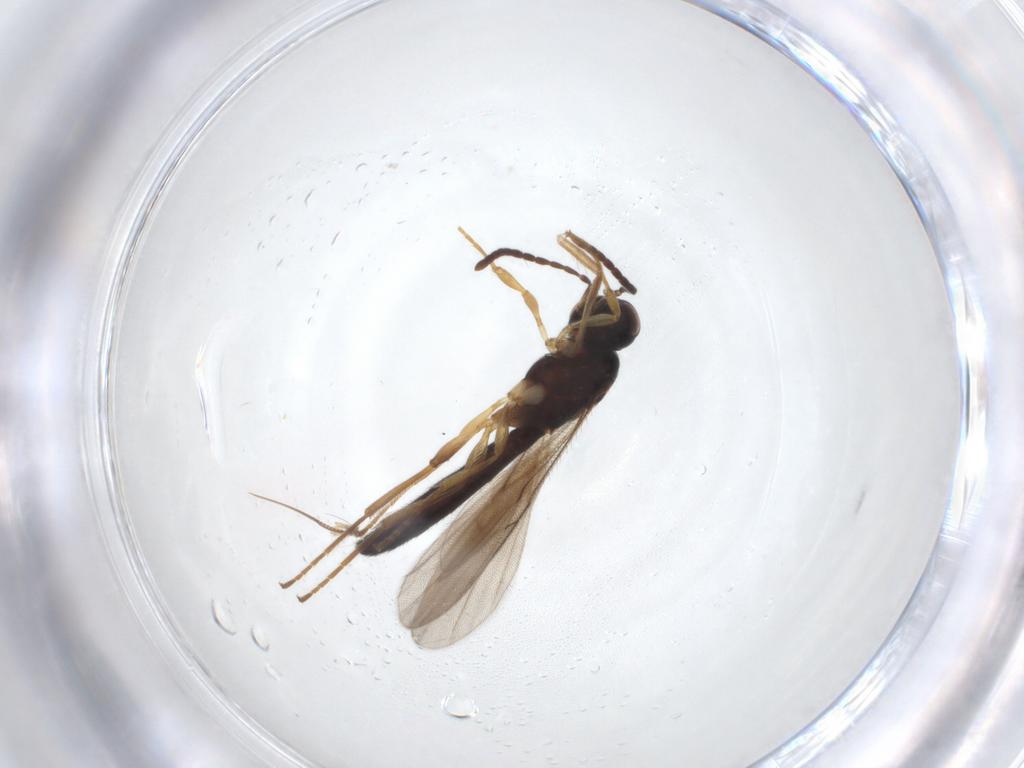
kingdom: Animalia
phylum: Arthropoda
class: Insecta
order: Hymenoptera
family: Scelionidae
